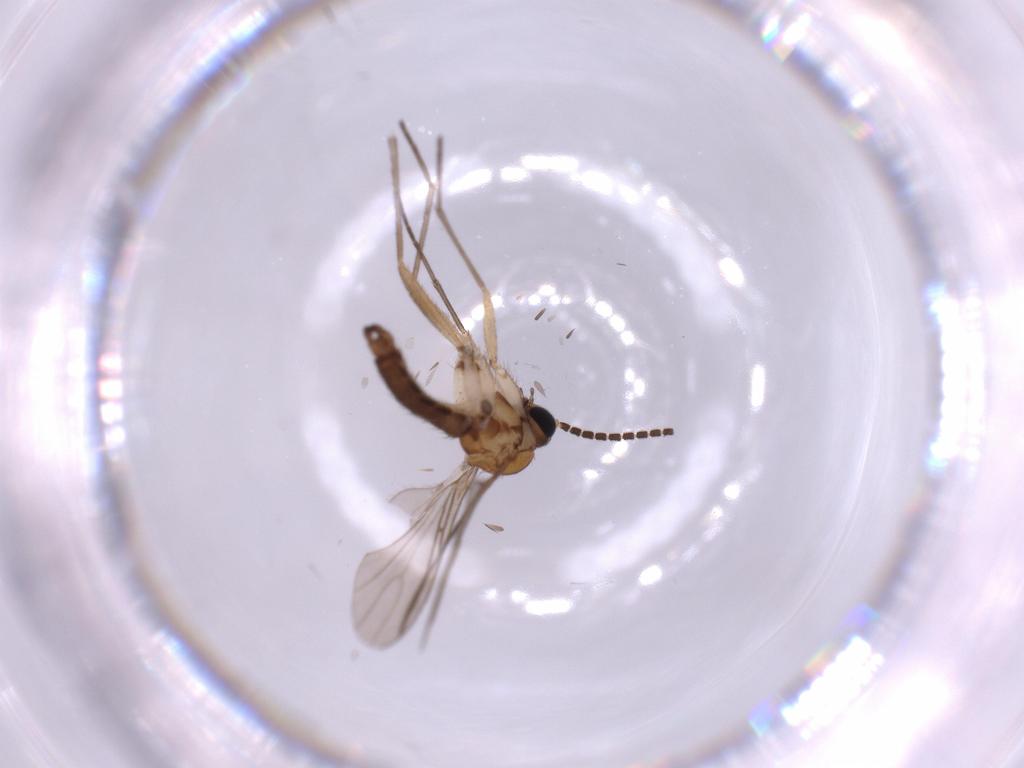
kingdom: Animalia
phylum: Arthropoda
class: Insecta
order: Diptera
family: Sciaridae
